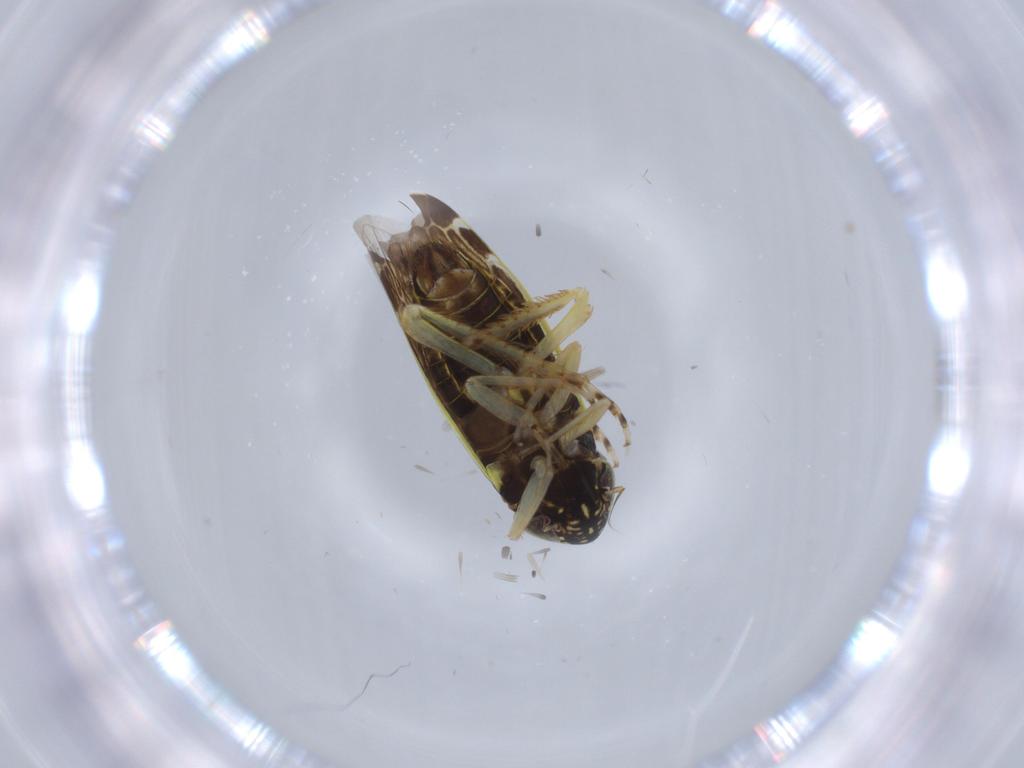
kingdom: Animalia
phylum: Arthropoda
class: Insecta
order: Hemiptera
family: Cicadellidae
